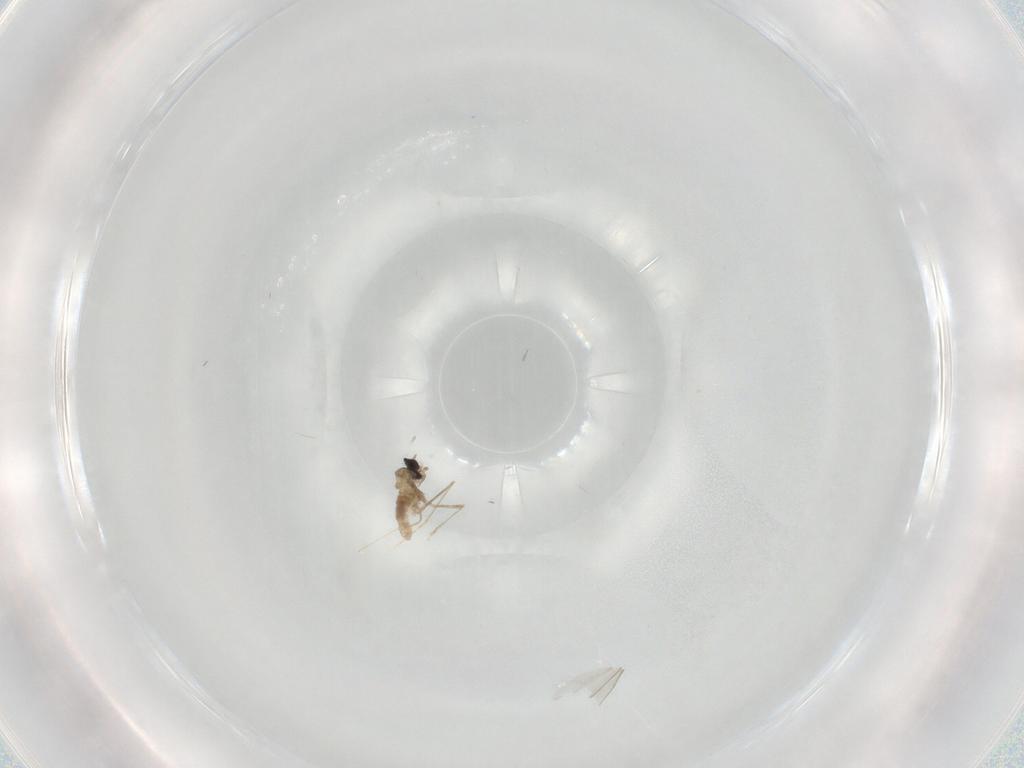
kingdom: Animalia
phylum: Arthropoda
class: Insecta
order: Diptera
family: Cecidomyiidae
